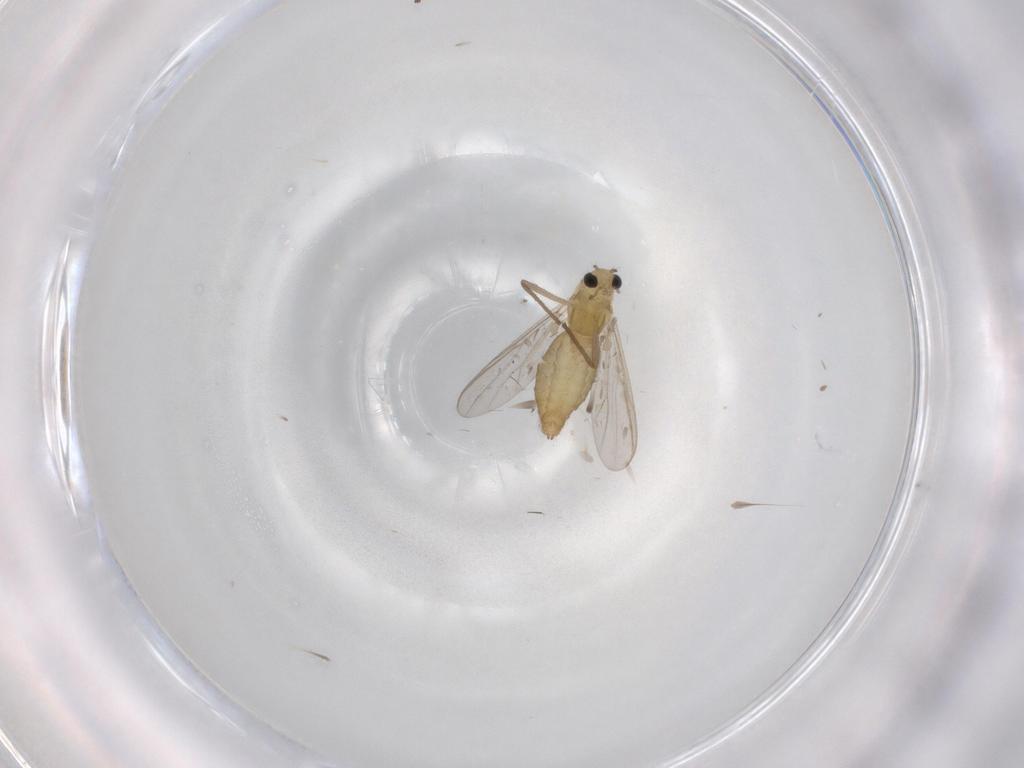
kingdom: Animalia
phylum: Arthropoda
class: Insecta
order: Diptera
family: Chironomidae
